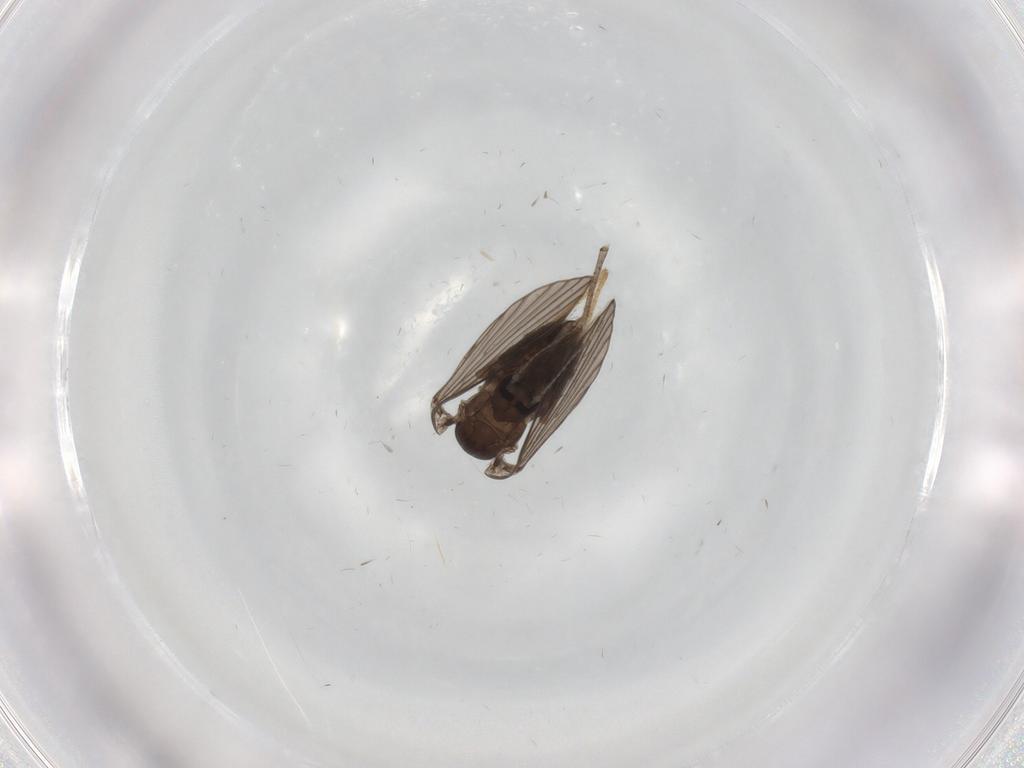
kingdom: Animalia
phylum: Arthropoda
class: Insecta
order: Diptera
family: Psychodidae
